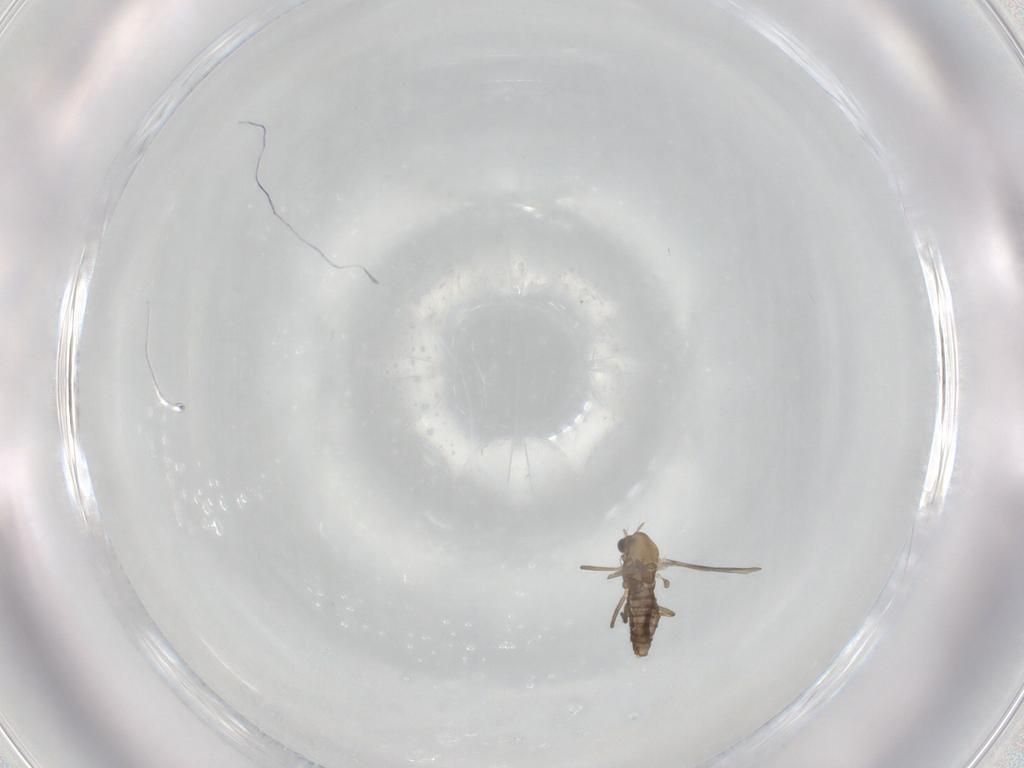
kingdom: Animalia
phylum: Arthropoda
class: Insecta
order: Diptera
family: Chironomidae
